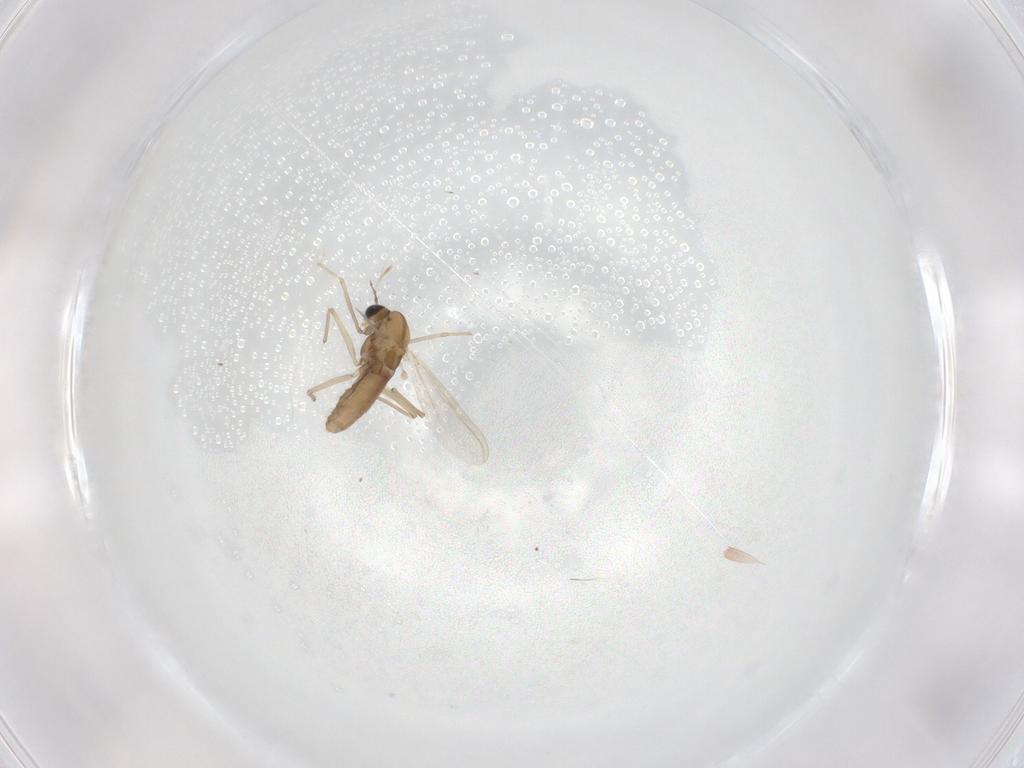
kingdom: Animalia
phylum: Arthropoda
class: Insecta
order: Diptera
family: Chironomidae
